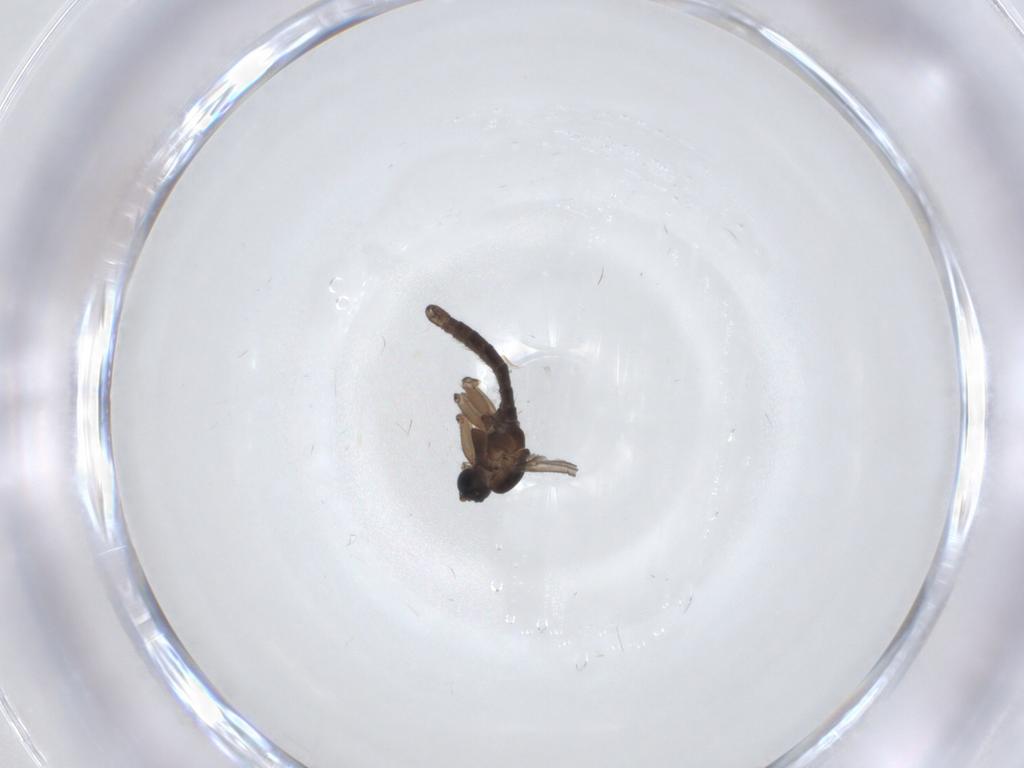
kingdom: Animalia
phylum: Arthropoda
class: Insecta
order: Diptera
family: Sciaridae
